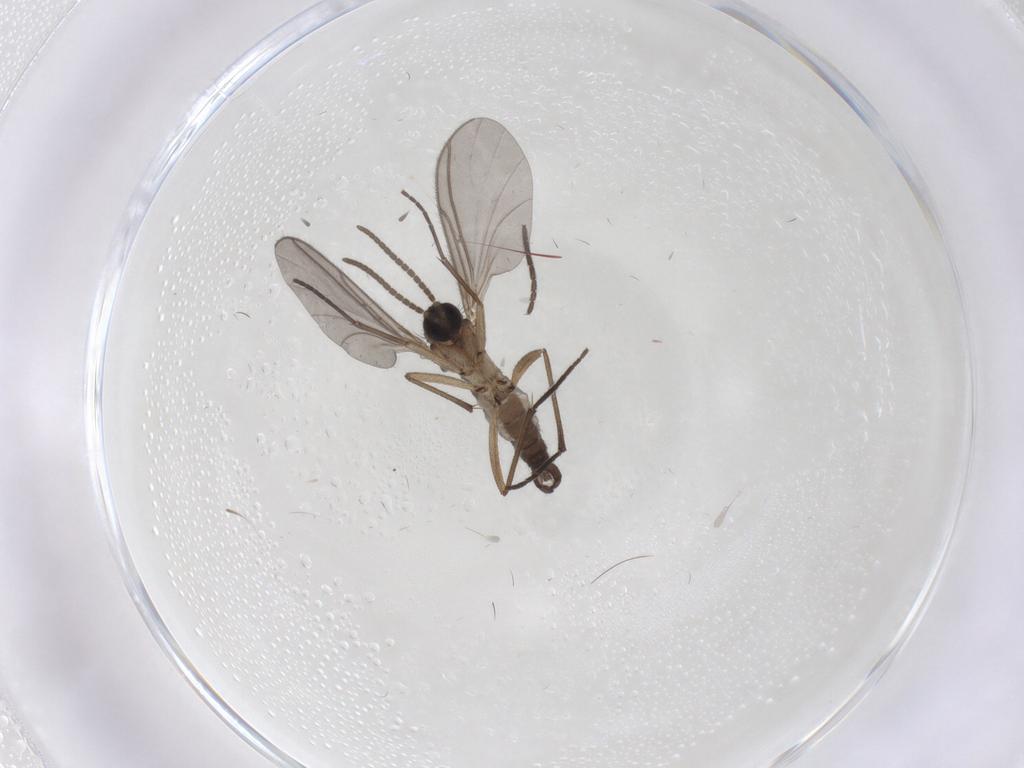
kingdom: Animalia
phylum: Arthropoda
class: Insecta
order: Diptera
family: Sciaridae
